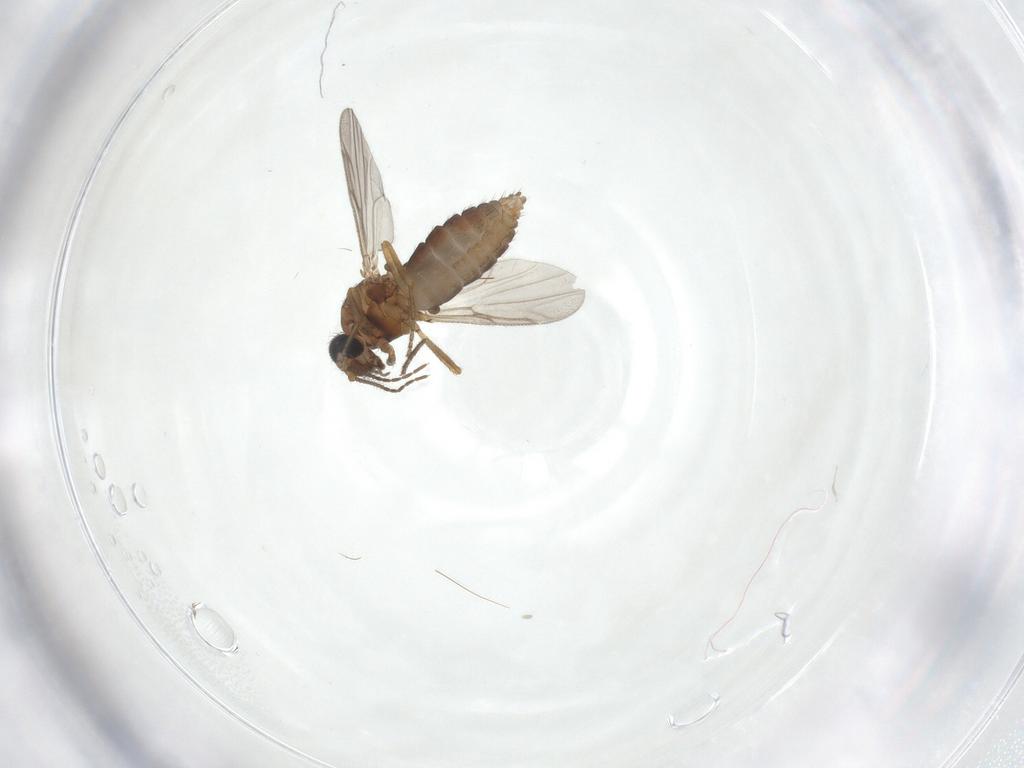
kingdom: Animalia
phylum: Arthropoda
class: Insecta
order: Diptera
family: Ceratopogonidae
